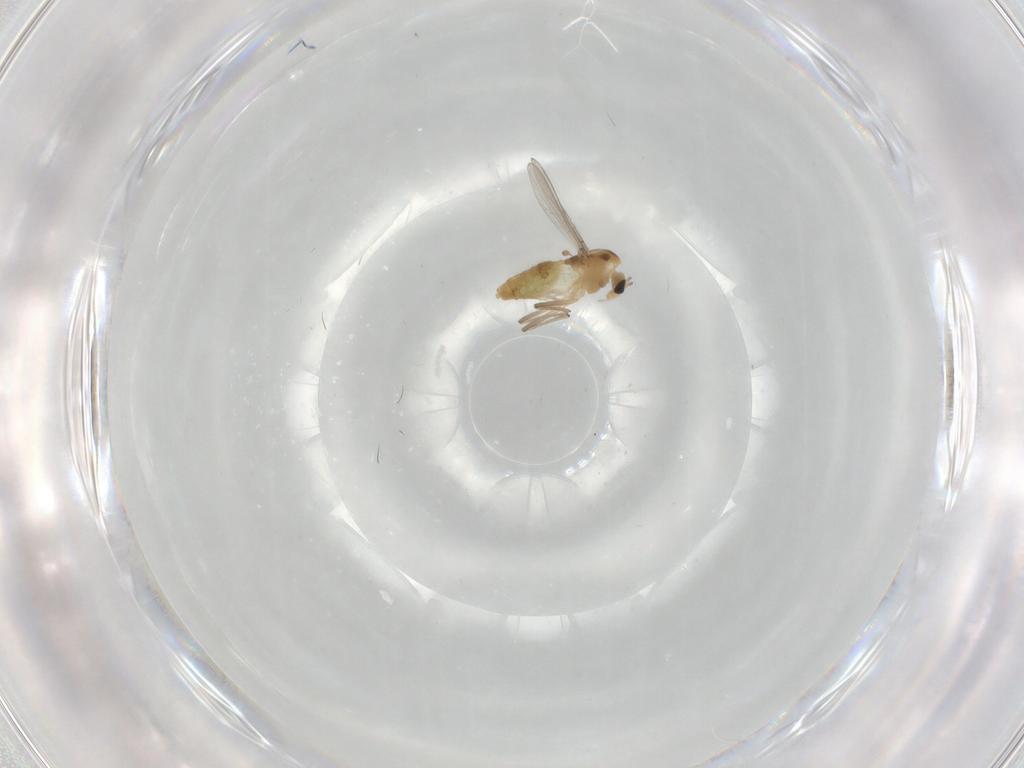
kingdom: Animalia
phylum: Arthropoda
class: Insecta
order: Diptera
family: Chironomidae
